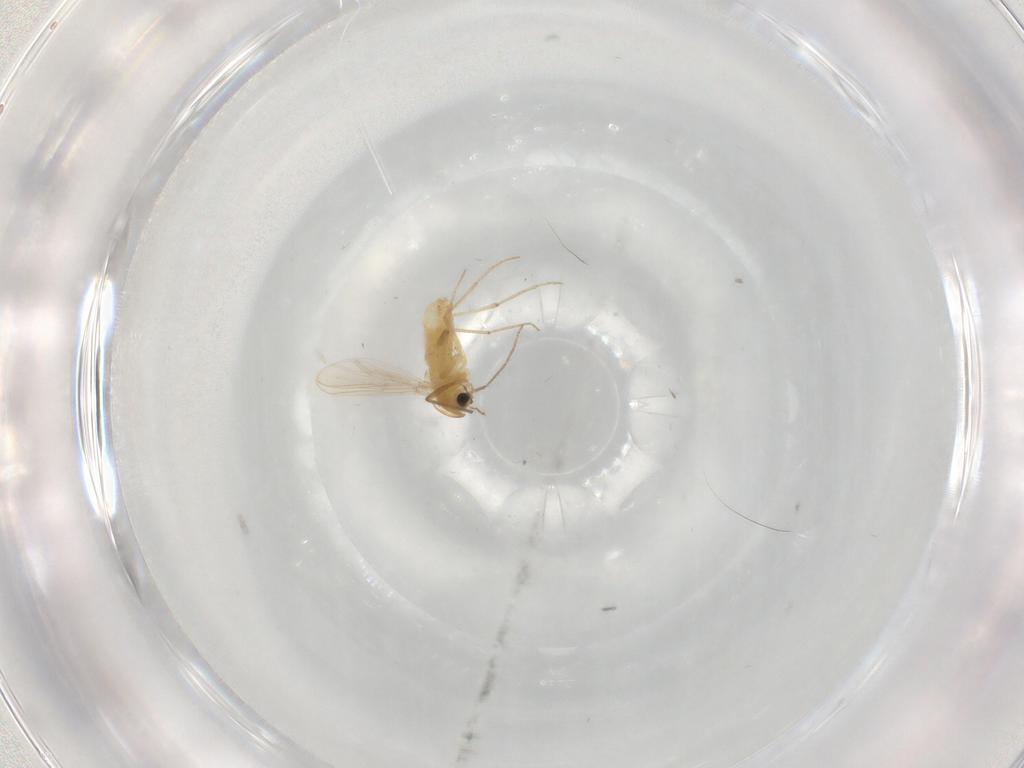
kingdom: Animalia
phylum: Arthropoda
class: Insecta
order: Diptera
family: Chironomidae
